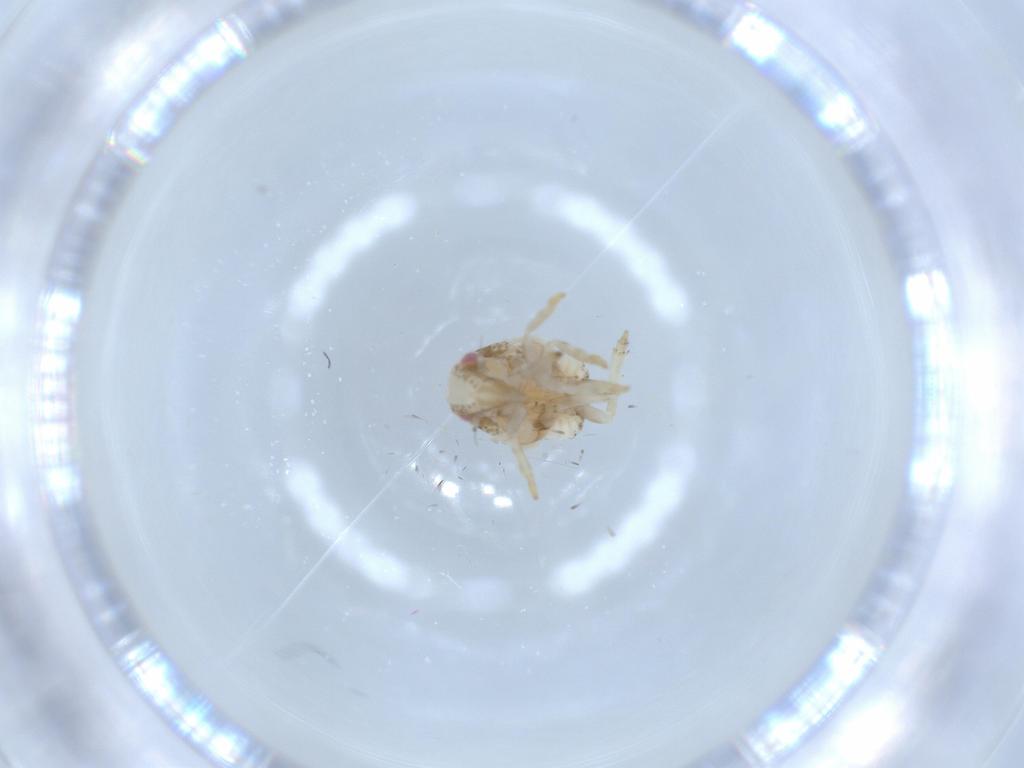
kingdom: Animalia
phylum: Arthropoda
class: Insecta
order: Hemiptera
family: Acanaloniidae
